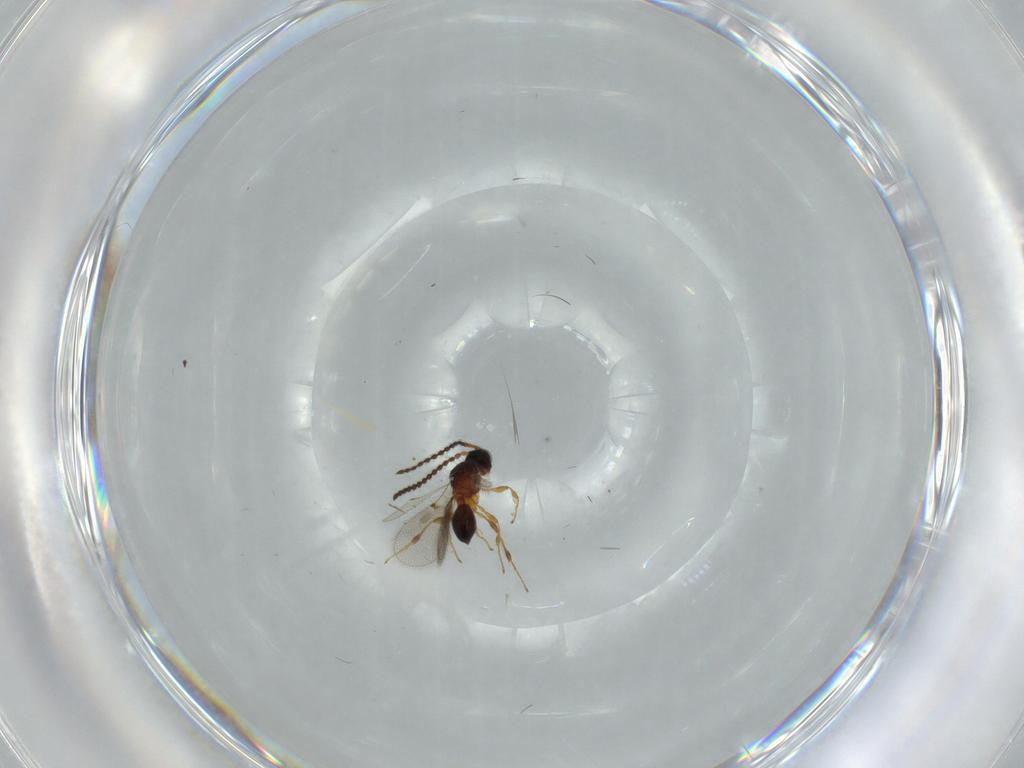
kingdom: Animalia
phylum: Arthropoda
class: Insecta
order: Hymenoptera
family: Diapriidae
